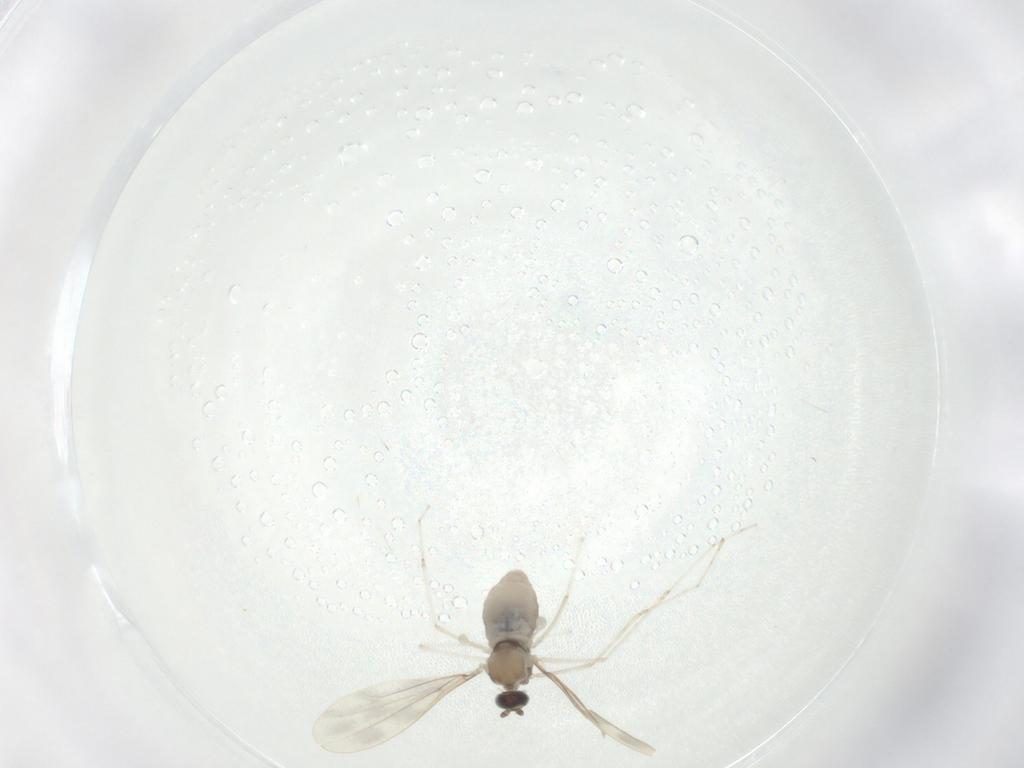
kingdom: Animalia
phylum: Arthropoda
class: Insecta
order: Diptera
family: Cecidomyiidae
